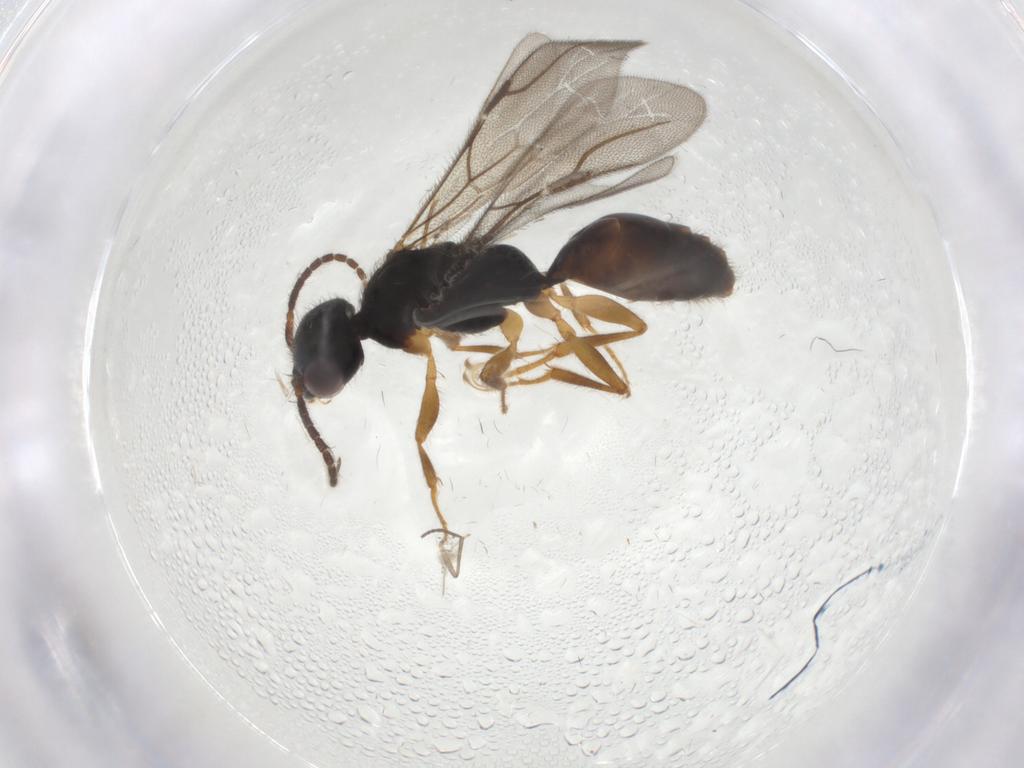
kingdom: Animalia
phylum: Arthropoda
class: Insecta
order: Hymenoptera
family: Bethylidae
